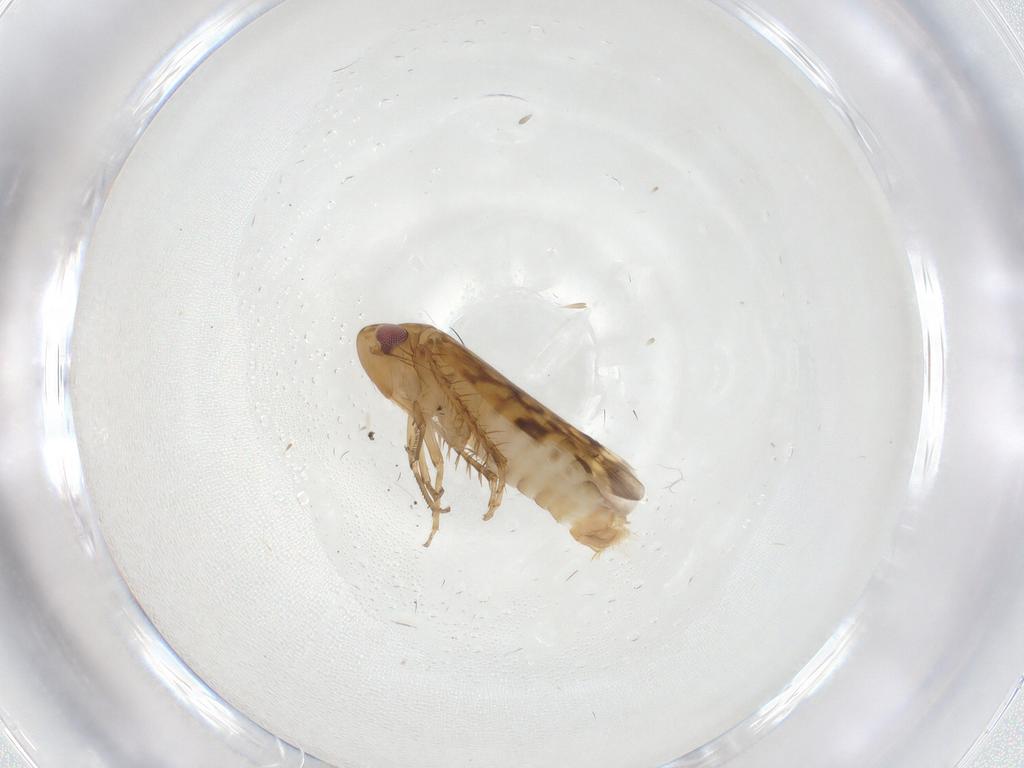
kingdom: Animalia
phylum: Arthropoda
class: Insecta
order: Hemiptera
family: Cicadellidae
